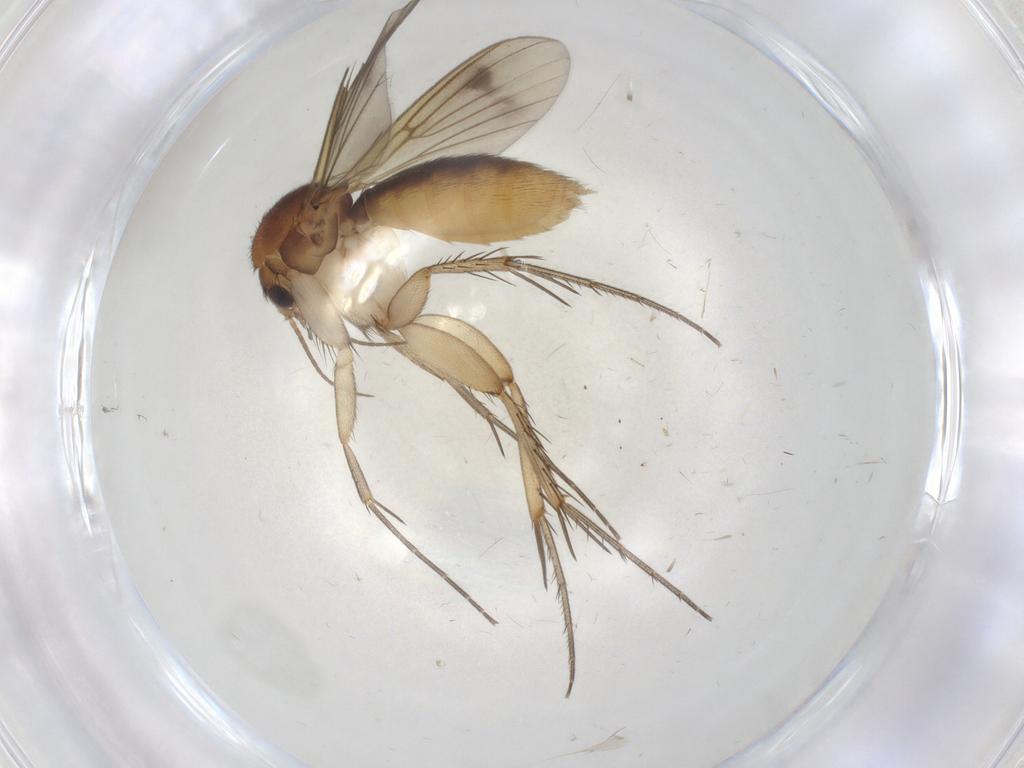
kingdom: Animalia
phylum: Arthropoda
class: Insecta
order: Diptera
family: Mycetophilidae
